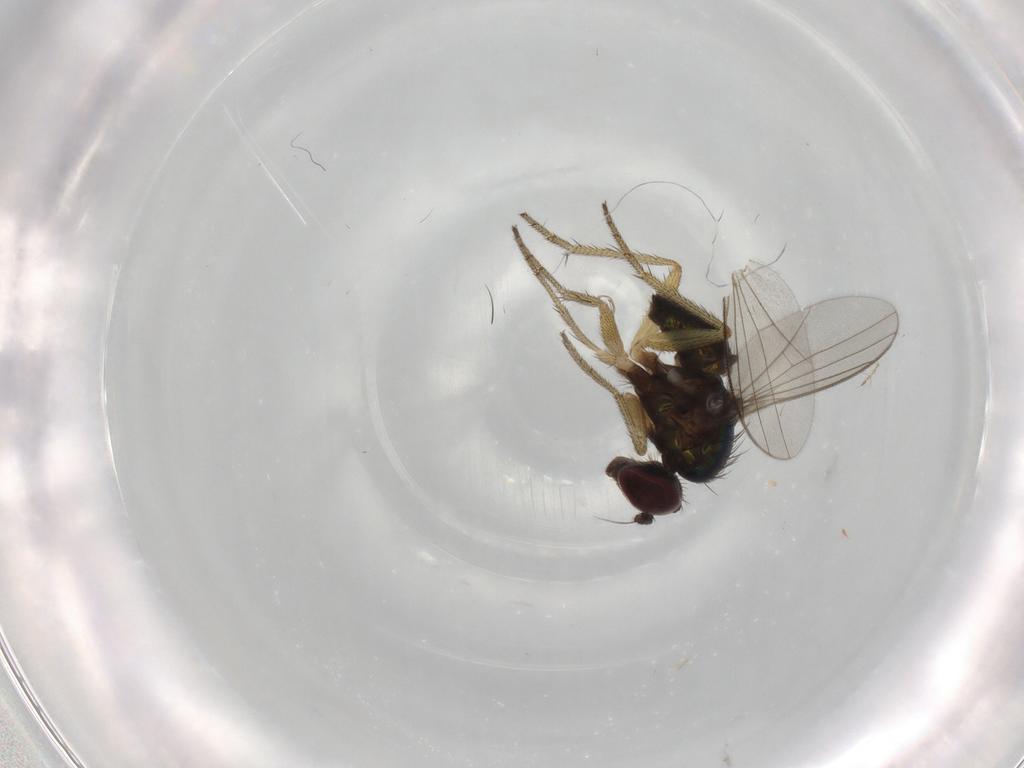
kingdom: Animalia
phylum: Arthropoda
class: Insecta
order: Diptera
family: Dolichopodidae
